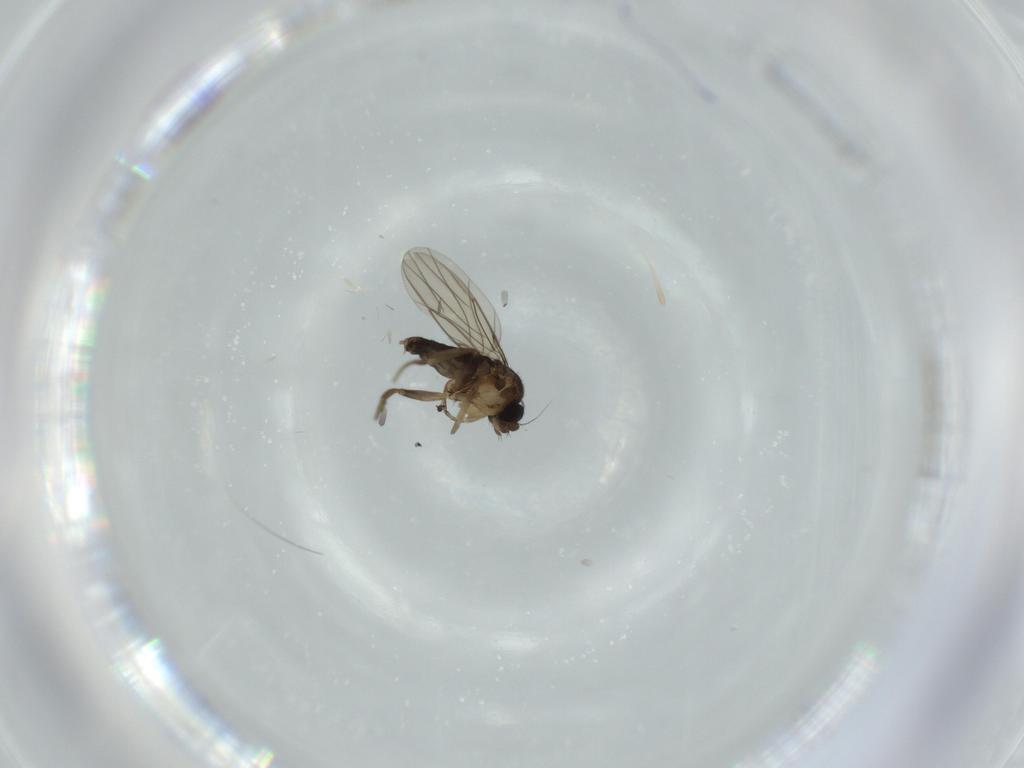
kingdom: Animalia
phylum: Arthropoda
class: Insecta
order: Diptera
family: Phoridae
